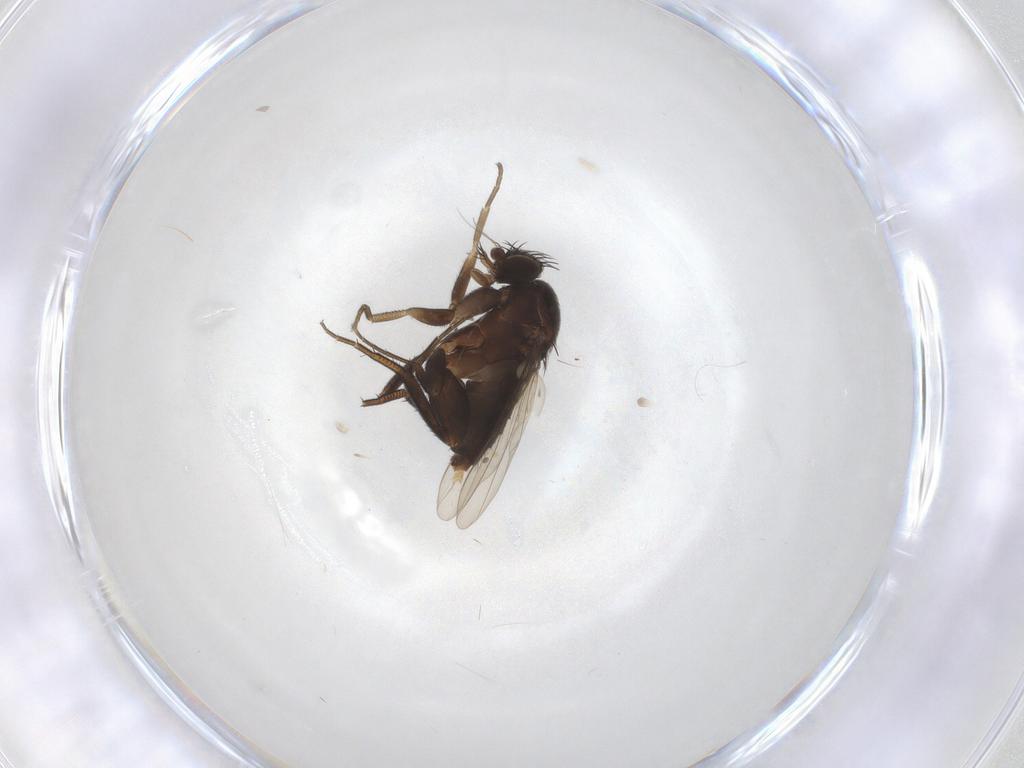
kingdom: Animalia
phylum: Arthropoda
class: Insecta
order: Diptera
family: Phoridae
